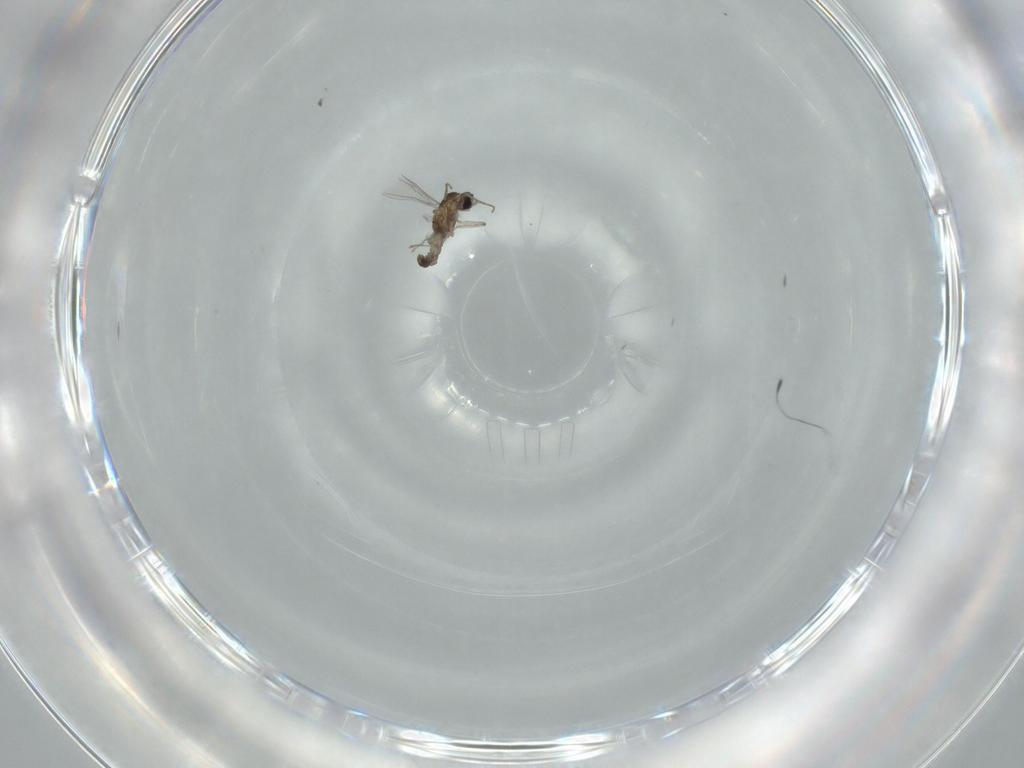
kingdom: Animalia
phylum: Arthropoda
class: Insecta
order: Diptera
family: Cecidomyiidae
